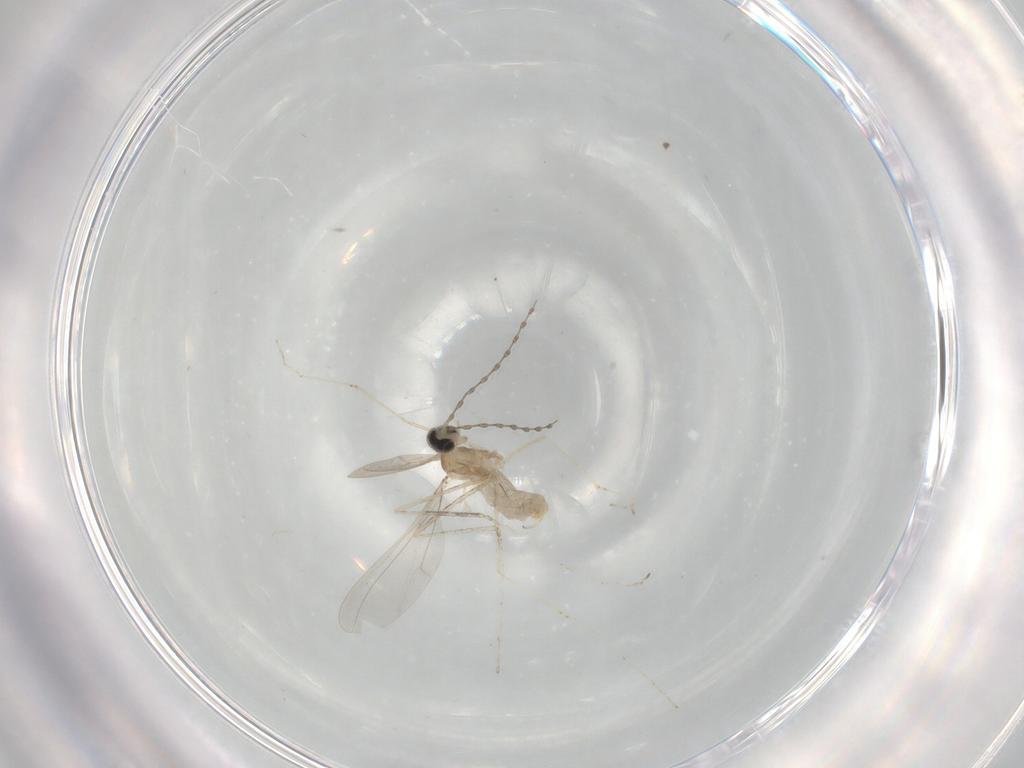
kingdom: Animalia
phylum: Arthropoda
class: Insecta
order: Diptera
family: Cecidomyiidae
